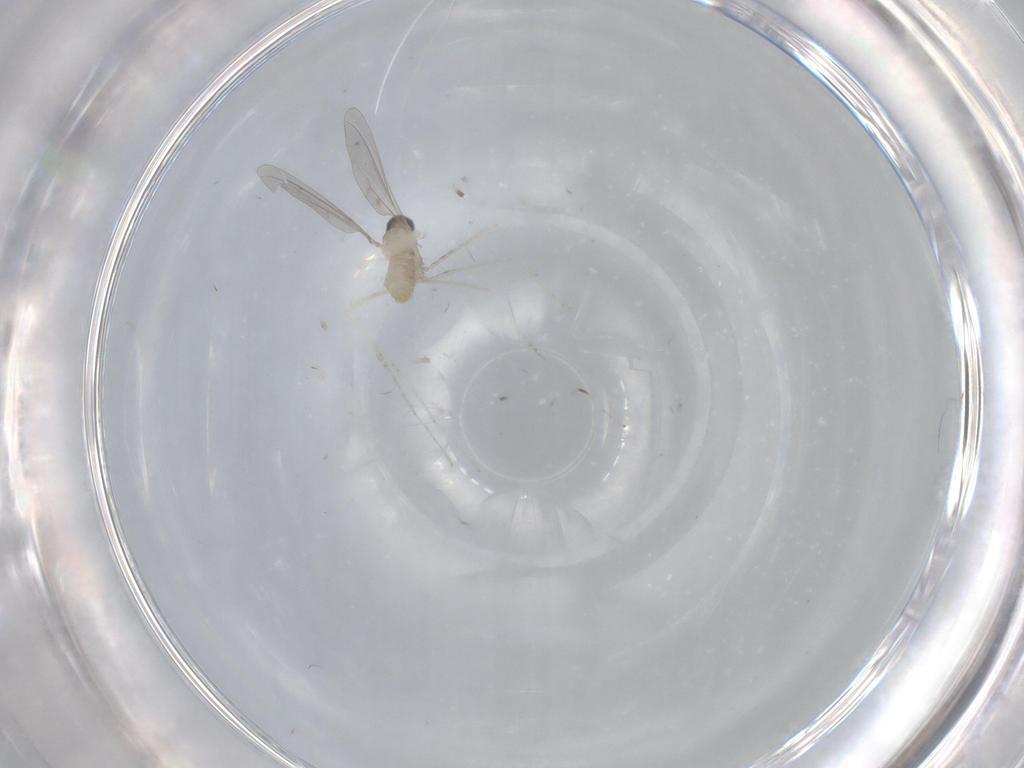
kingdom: Animalia
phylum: Arthropoda
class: Insecta
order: Diptera
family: Cecidomyiidae
